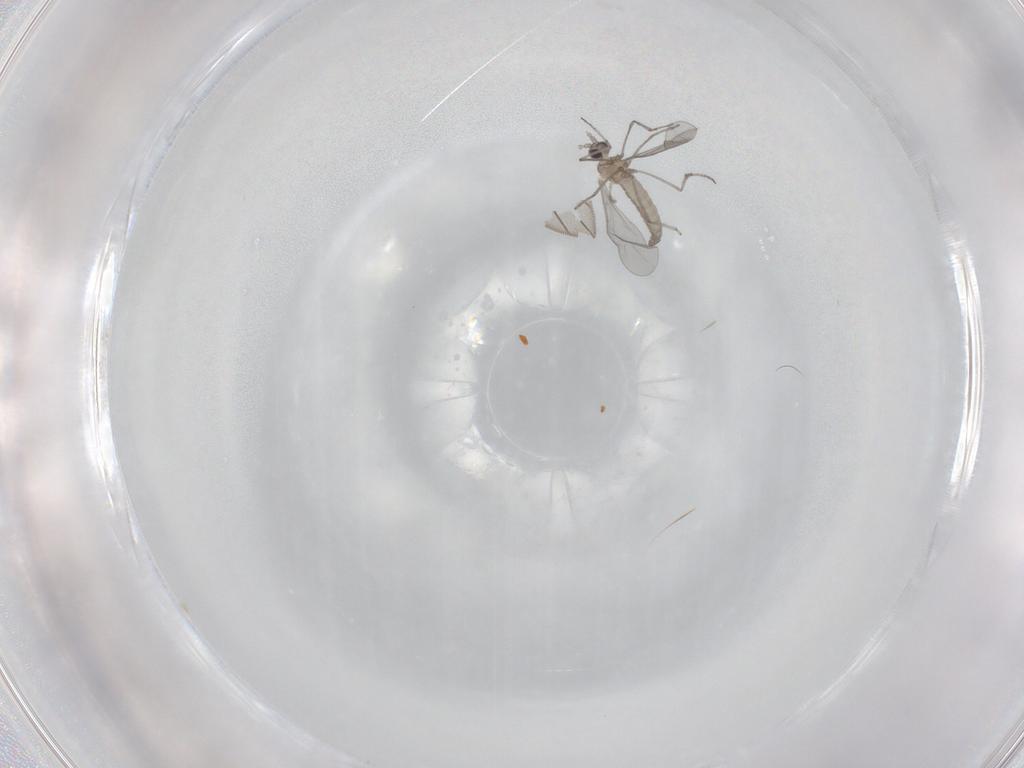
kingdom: Animalia
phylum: Arthropoda
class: Insecta
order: Diptera
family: Cecidomyiidae
